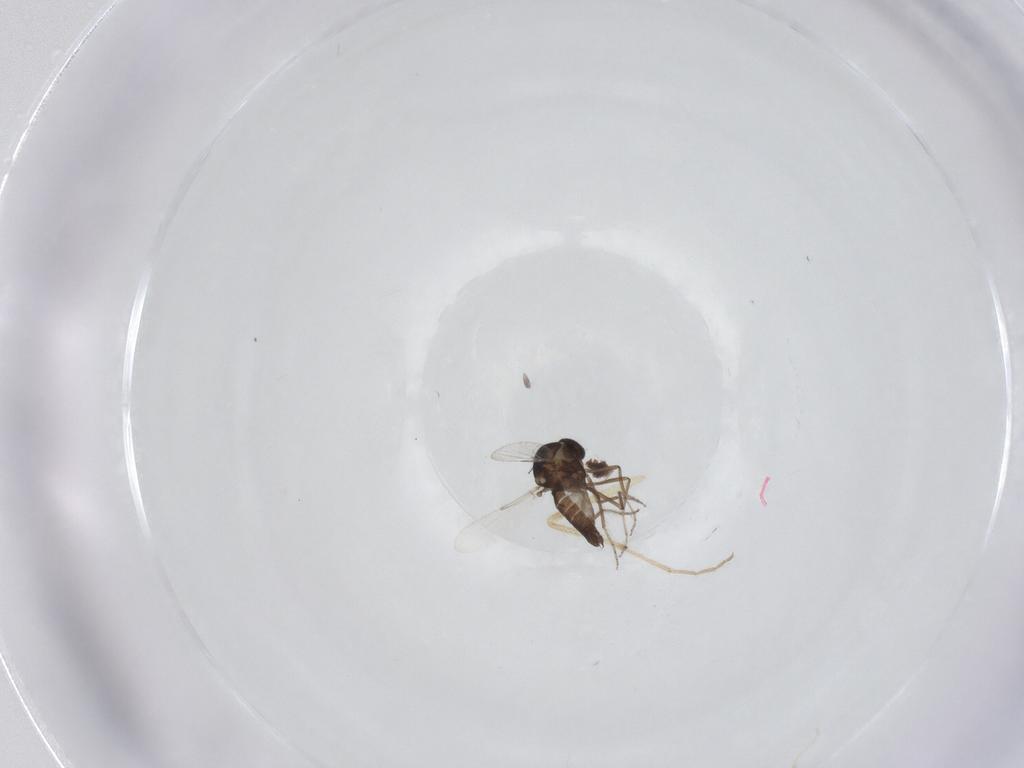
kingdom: Animalia
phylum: Arthropoda
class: Insecta
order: Diptera
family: Ceratopogonidae
